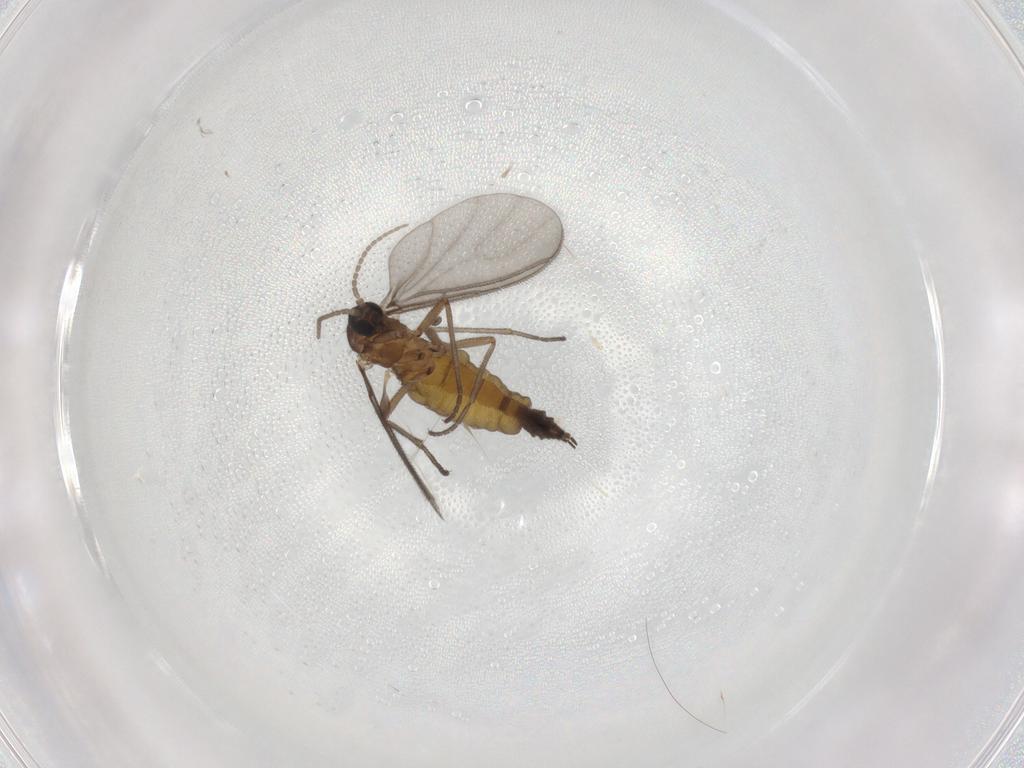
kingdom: Animalia
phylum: Arthropoda
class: Insecta
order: Diptera
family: Sciaridae
